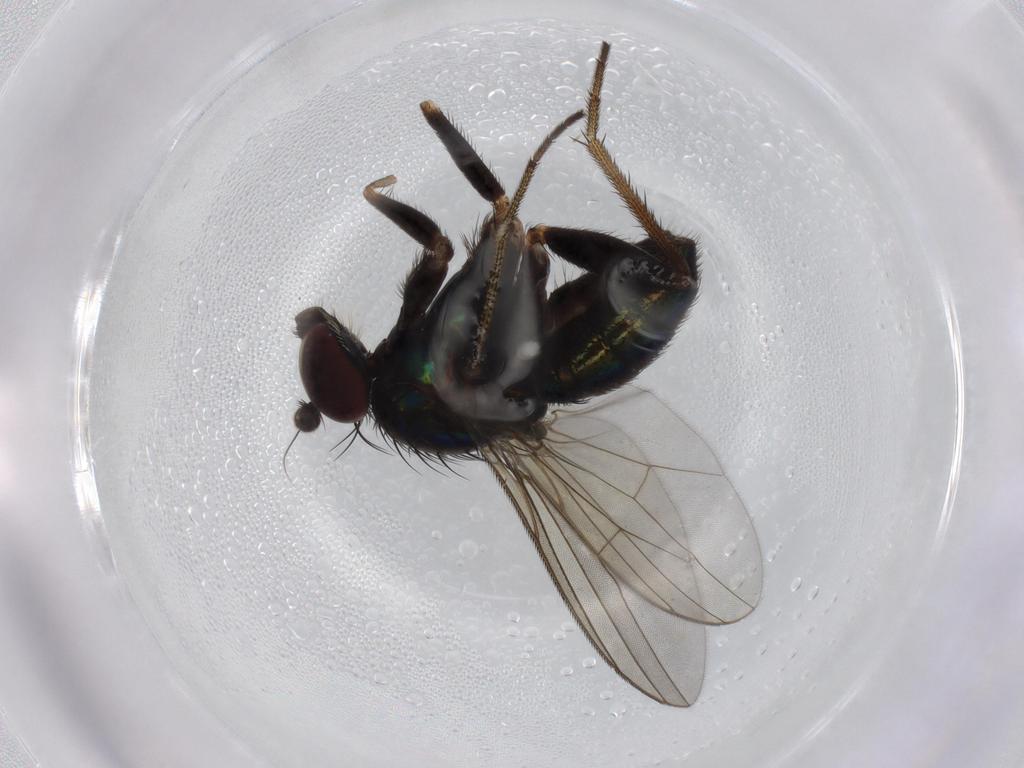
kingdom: Animalia
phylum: Arthropoda
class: Insecta
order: Diptera
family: Dolichopodidae
